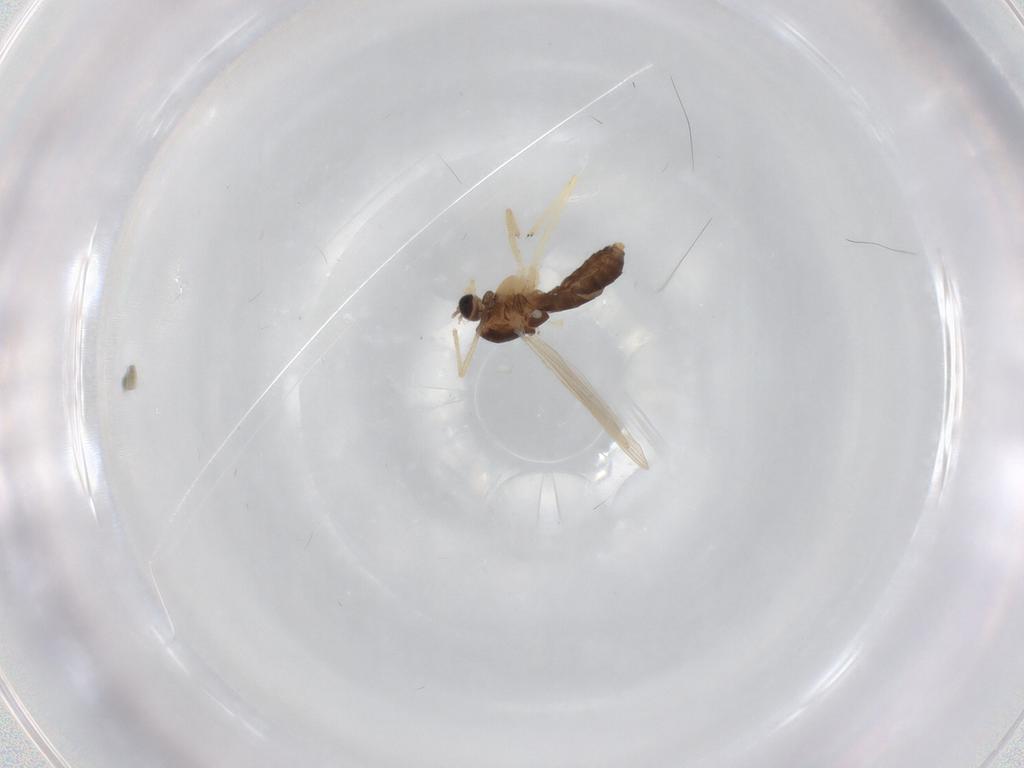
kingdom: Animalia
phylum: Arthropoda
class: Insecta
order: Diptera
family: Chironomidae
